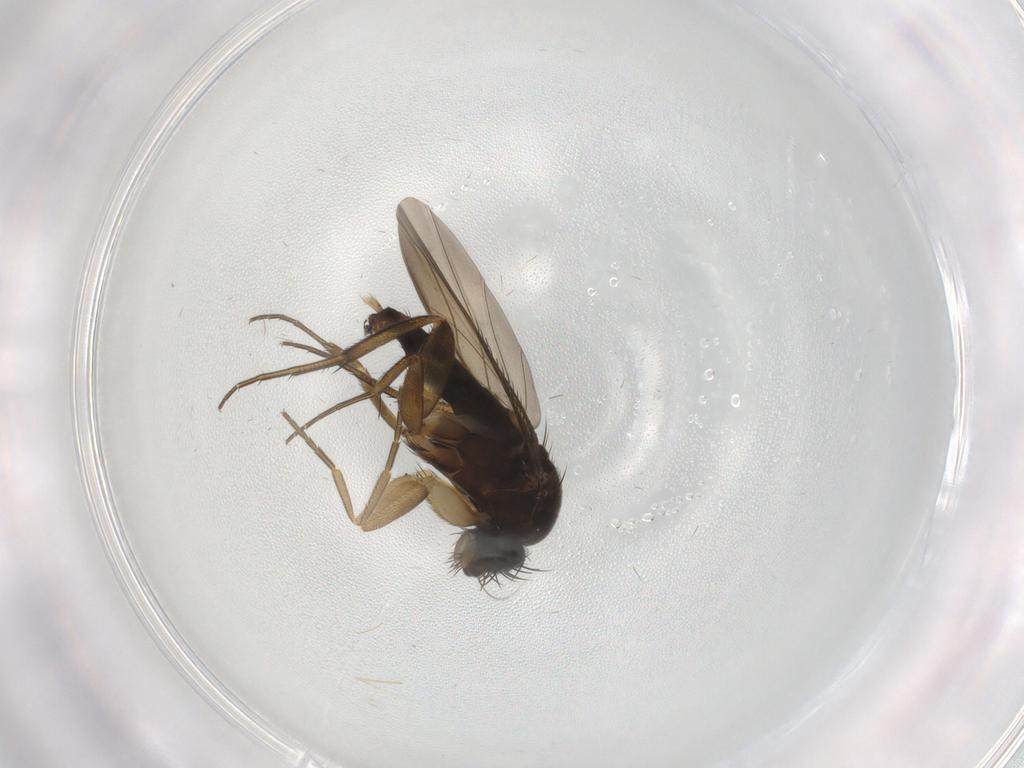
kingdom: Animalia
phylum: Arthropoda
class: Insecta
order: Diptera
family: Phoridae
